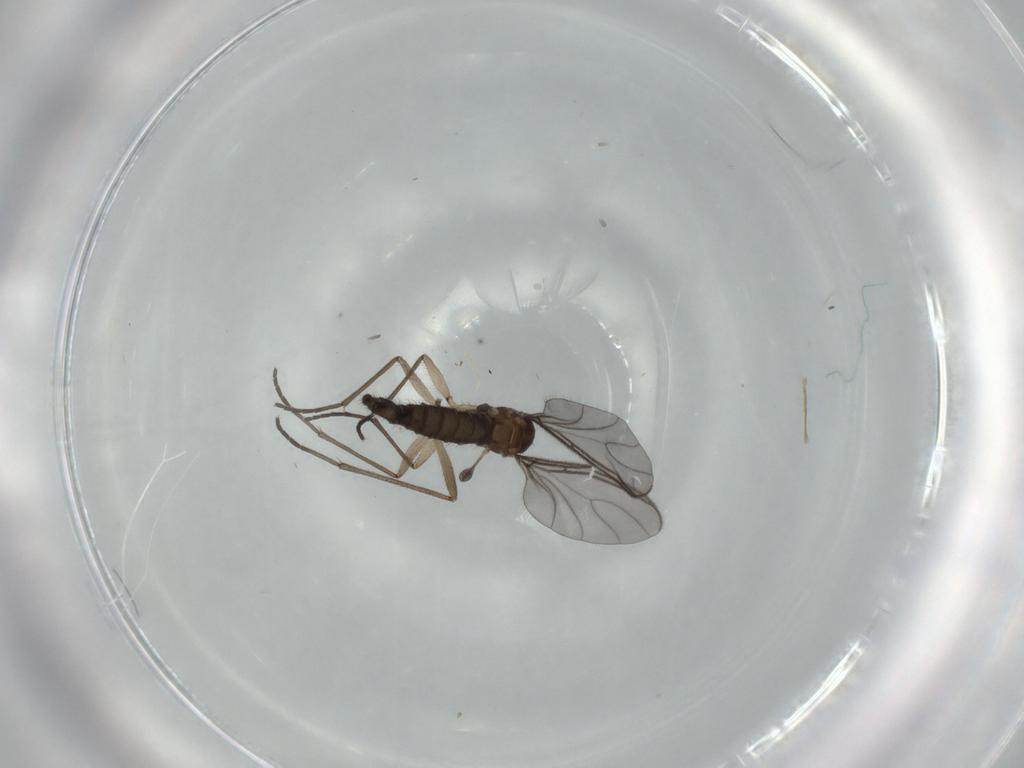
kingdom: Animalia
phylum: Arthropoda
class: Insecta
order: Diptera
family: Sciaridae
